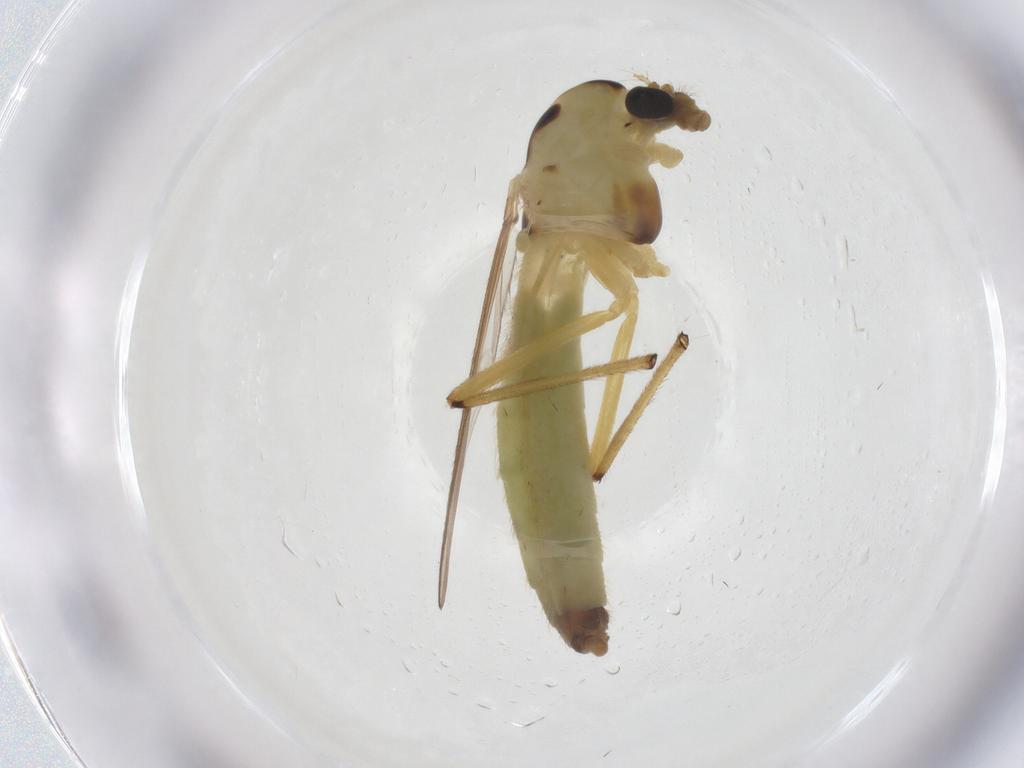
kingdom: Animalia
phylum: Arthropoda
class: Insecta
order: Diptera
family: Chironomidae
